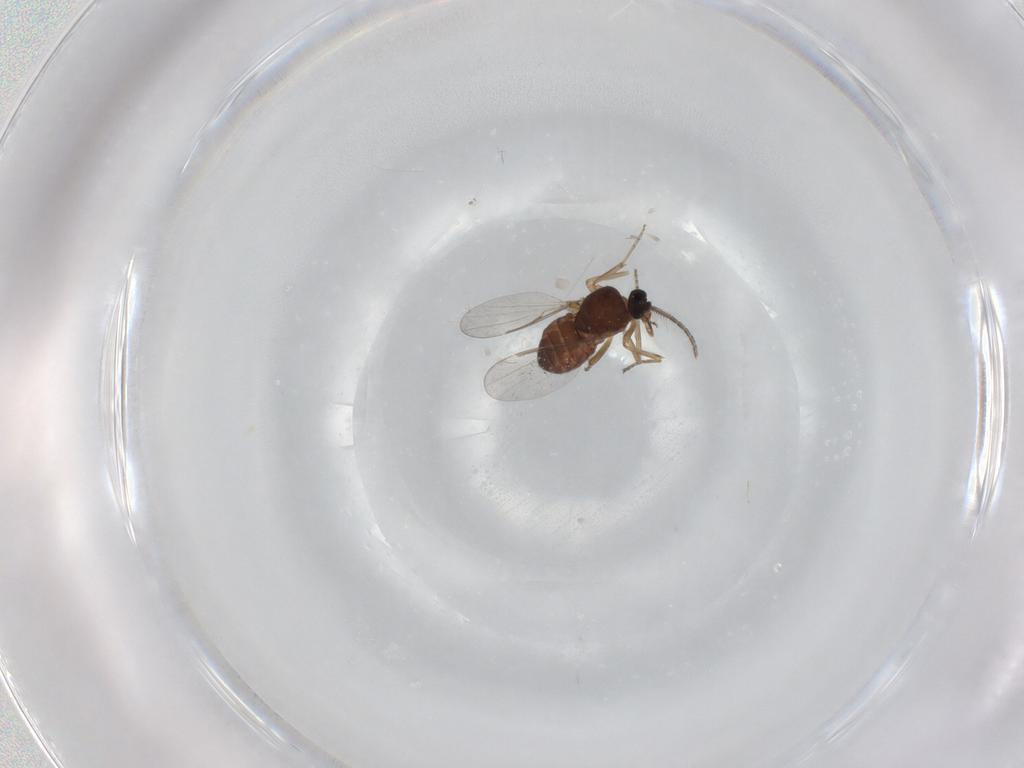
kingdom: Animalia
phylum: Arthropoda
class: Insecta
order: Diptera
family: Ceratopogonidae
